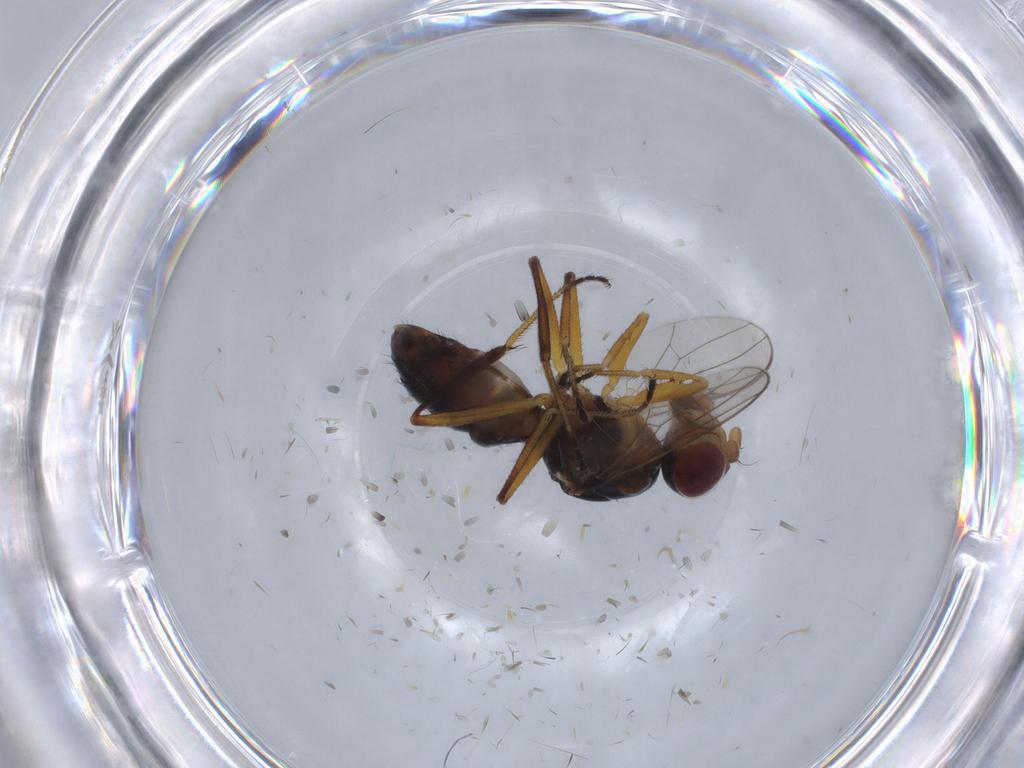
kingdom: Animalia
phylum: Arthropoda
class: Insecta
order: Diptera
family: Sepsidae
